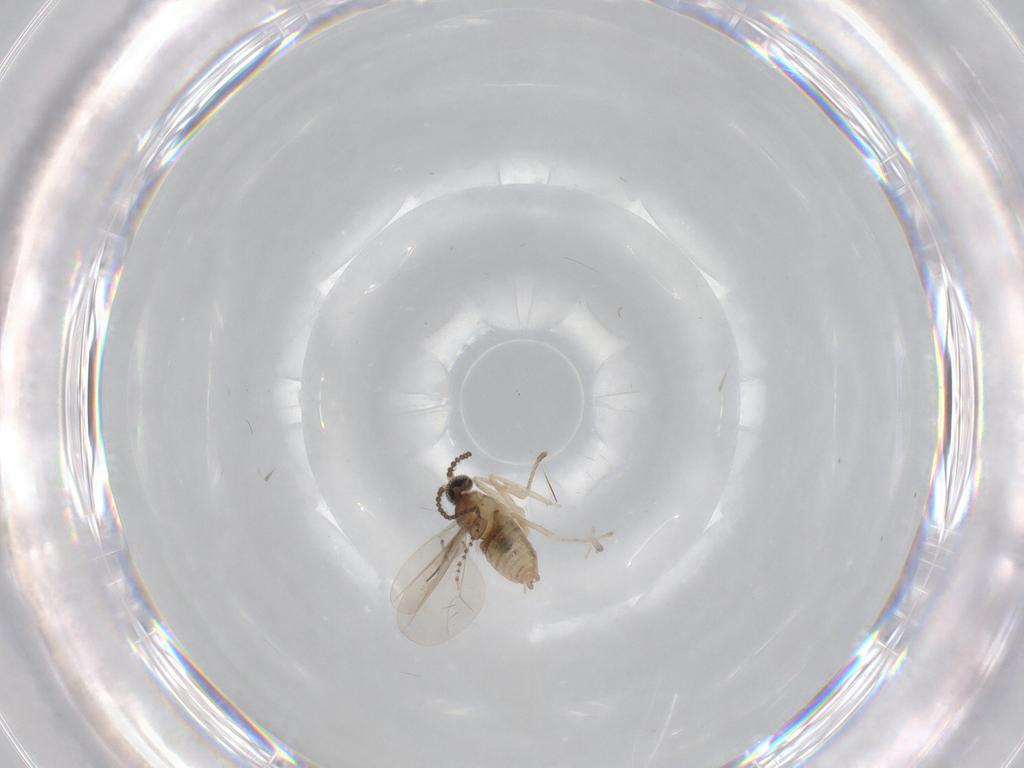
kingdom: Animalia
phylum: Arthropoda
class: Insecta
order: Diptera
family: Cecidomyiidae
